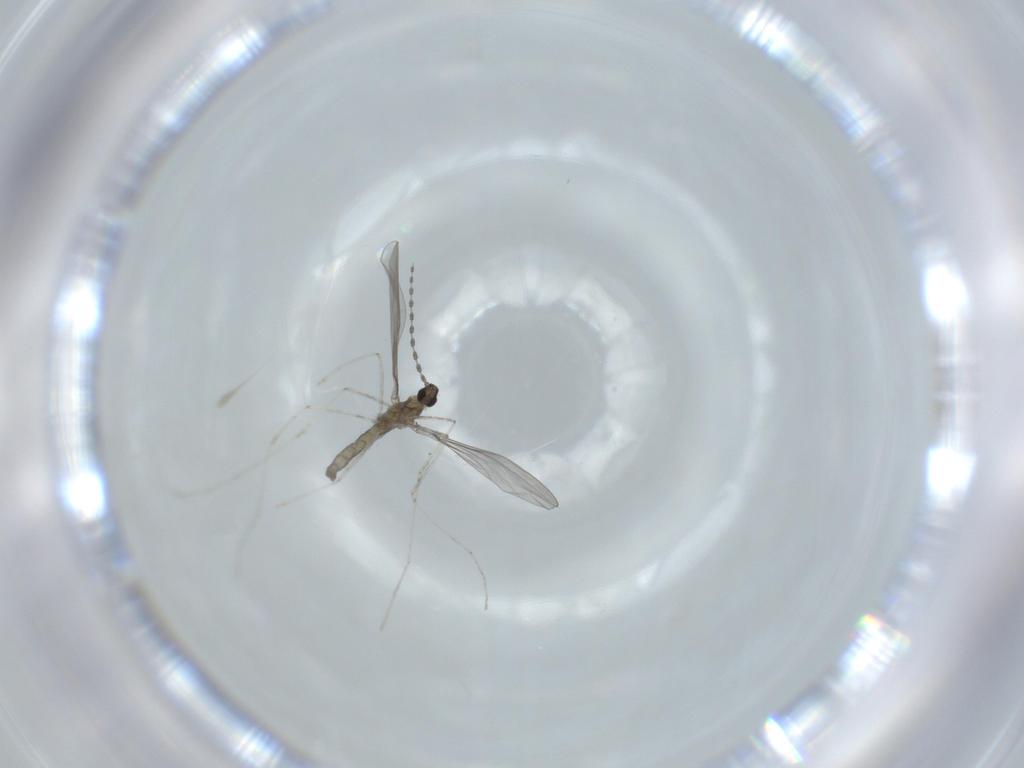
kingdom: Animalia
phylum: Arthropoda
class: Insecta
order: Diptera
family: Cecidomyiidae
